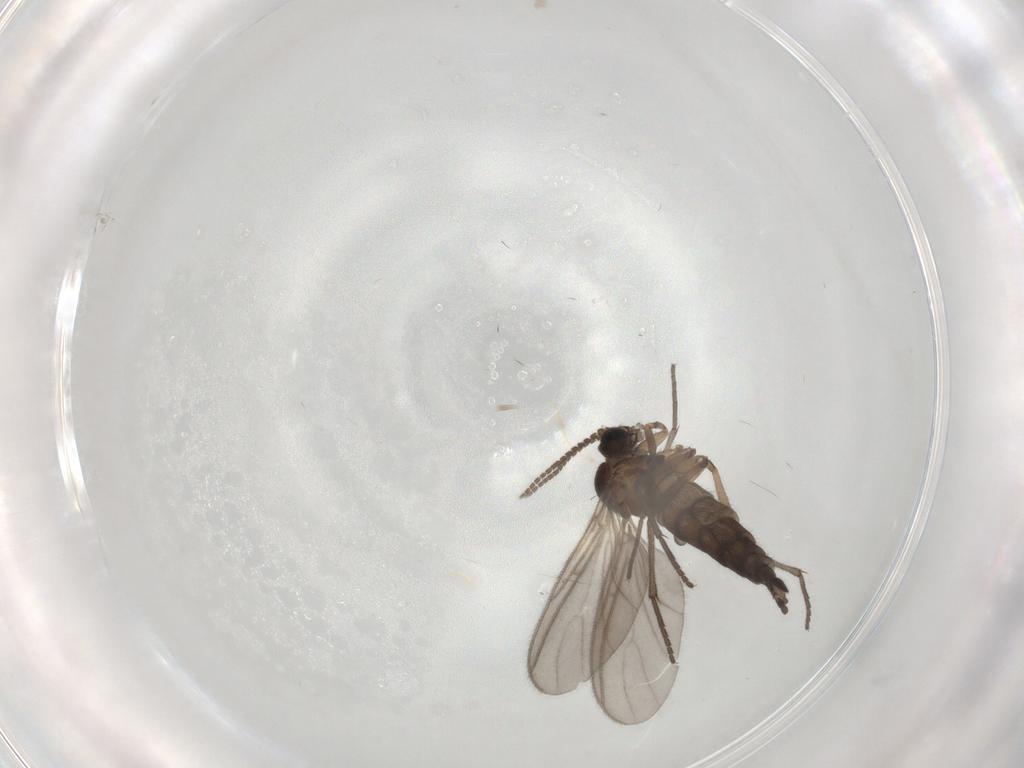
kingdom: Animalia
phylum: Arthropoda
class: Insecta
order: Diptera
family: Sciaridae
